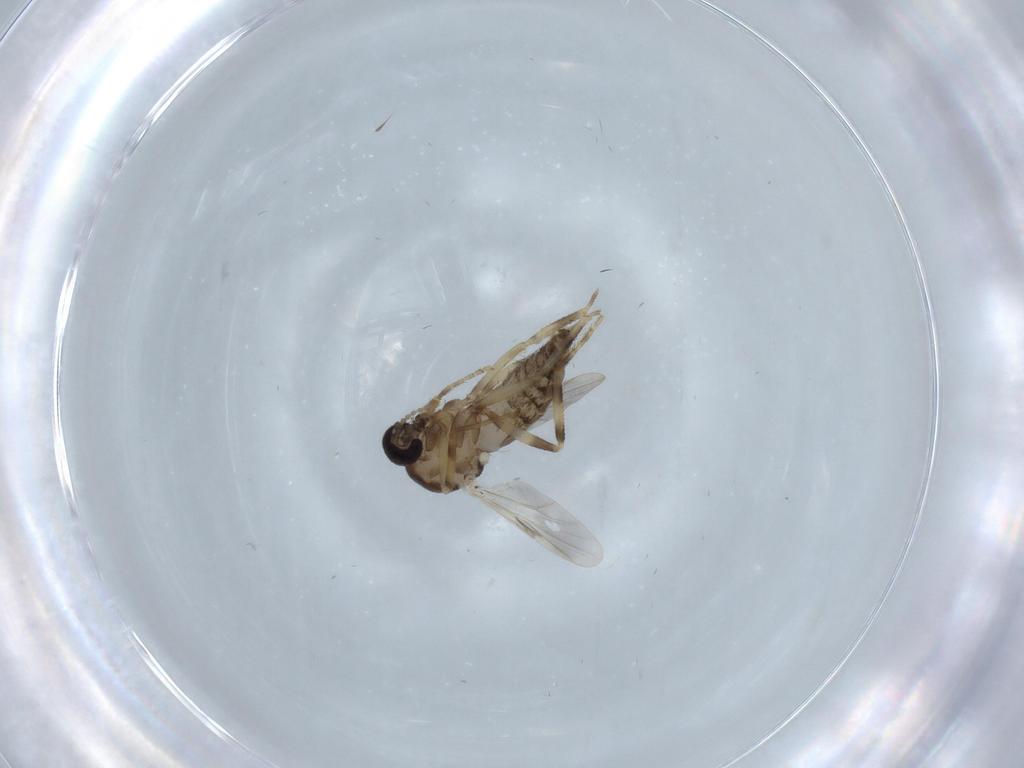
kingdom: Animalia
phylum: Arthropoda
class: Insecta
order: Diptera
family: Ceratopogonidae
